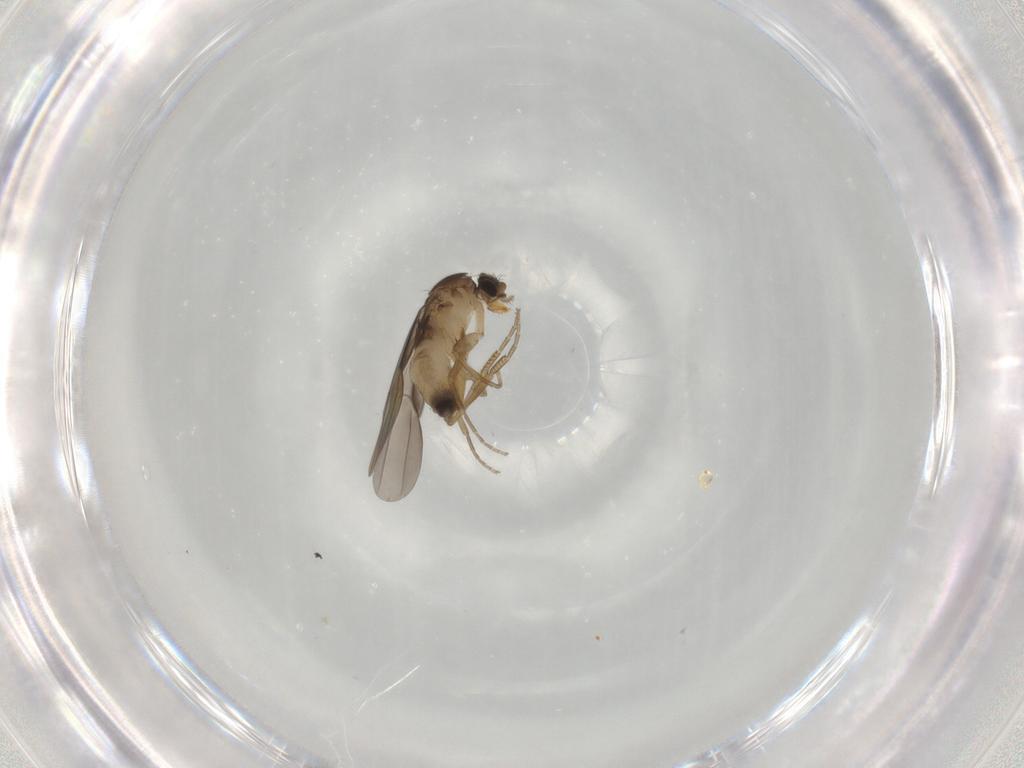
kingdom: Animalia
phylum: Arthropoda
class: Insecta
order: Diptera
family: Phoridae
